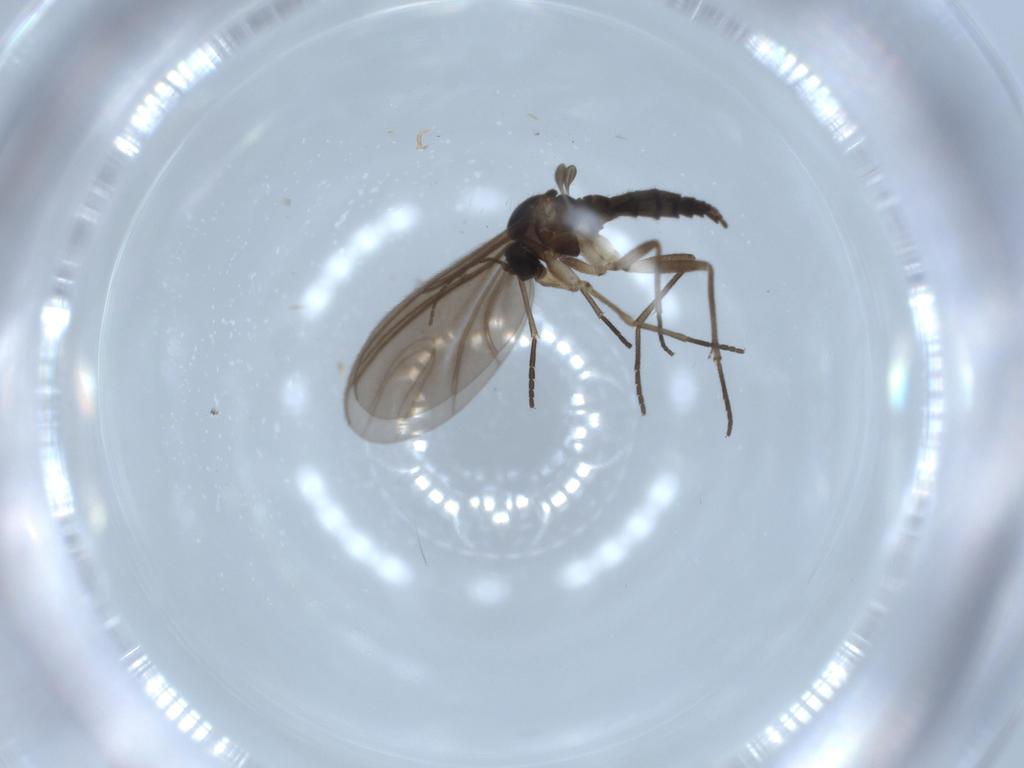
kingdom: Animalia
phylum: Arthropoda
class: Insecta
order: Diptera
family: Sciaridae
